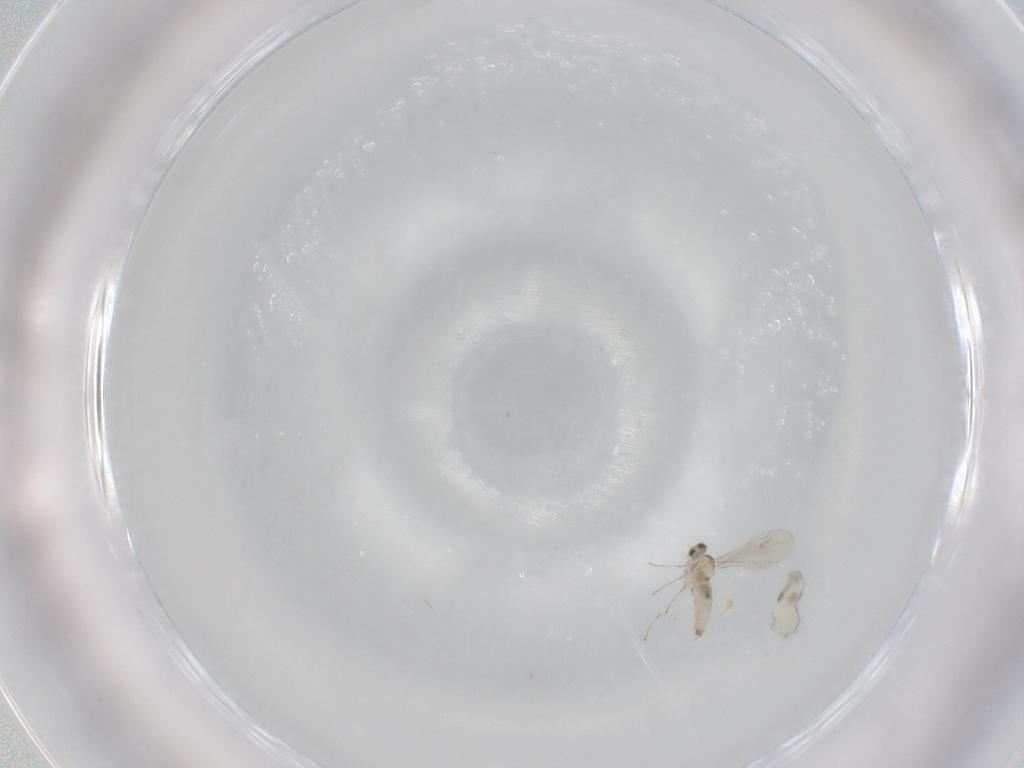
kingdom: Animalia
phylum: Arthropoda
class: Insecta
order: Diptera
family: Cecidomyiidae
